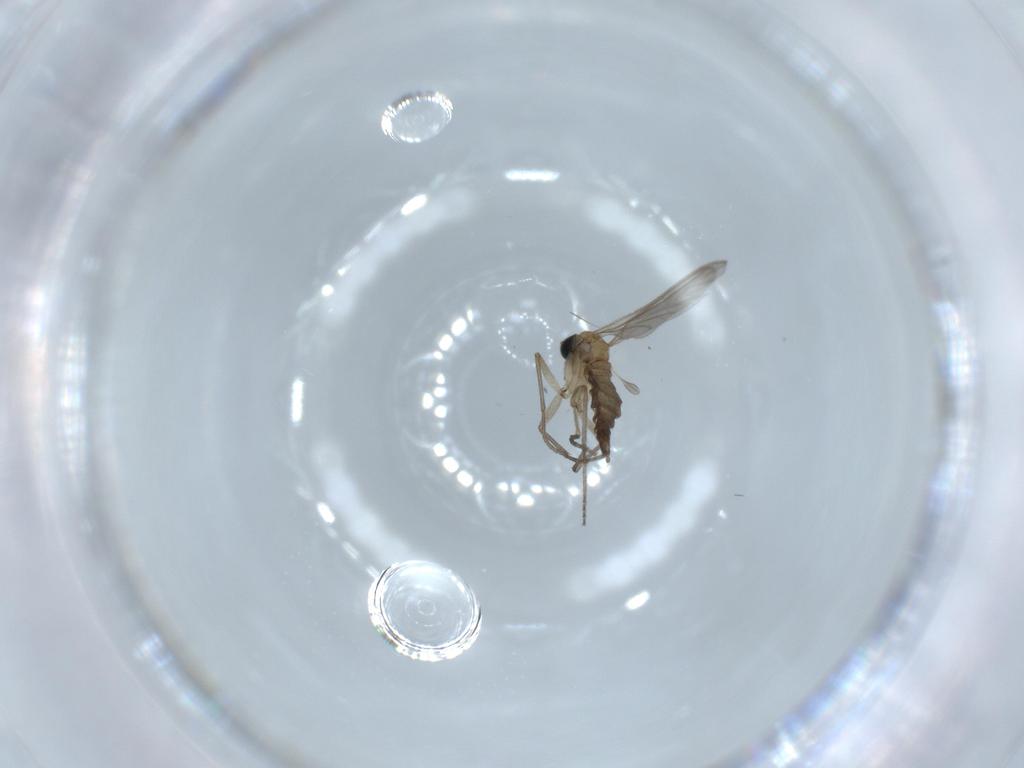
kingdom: Animalia
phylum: Arthropoda
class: Insecta
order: Diptera
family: Sciaridae
